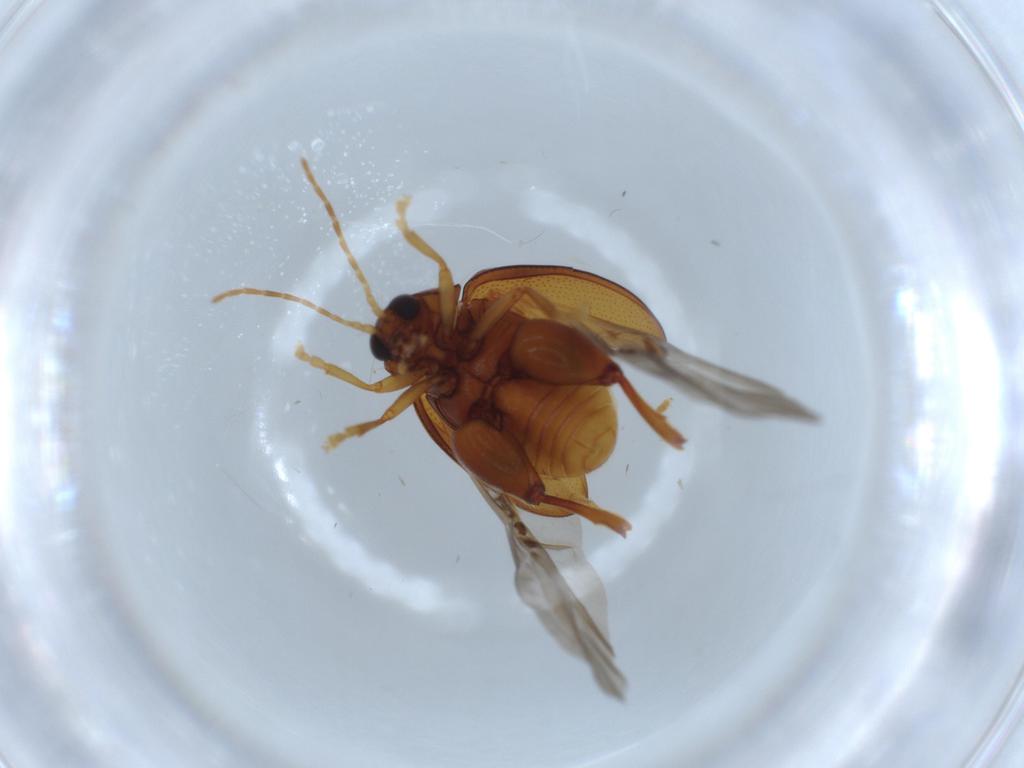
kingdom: Animalia
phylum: Arthropoda
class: Insecta
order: Coleoptera
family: Chrysomelidae
